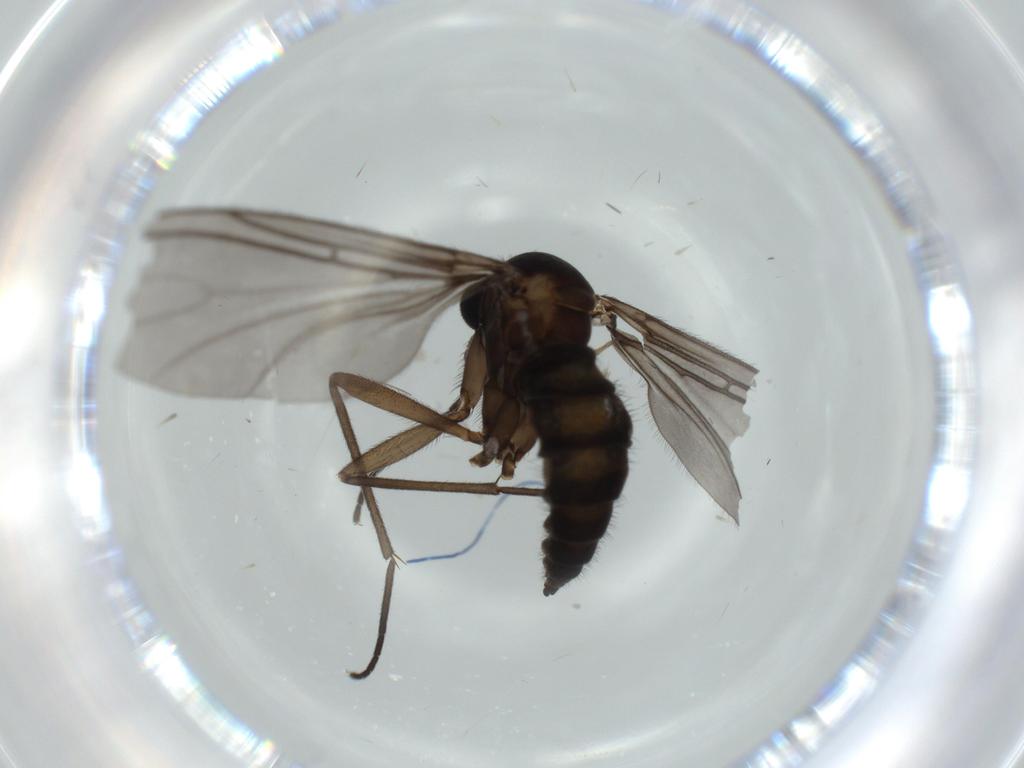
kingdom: Animalia
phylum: Arthropoda
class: Insecta
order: Diptera
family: Sciaridae
